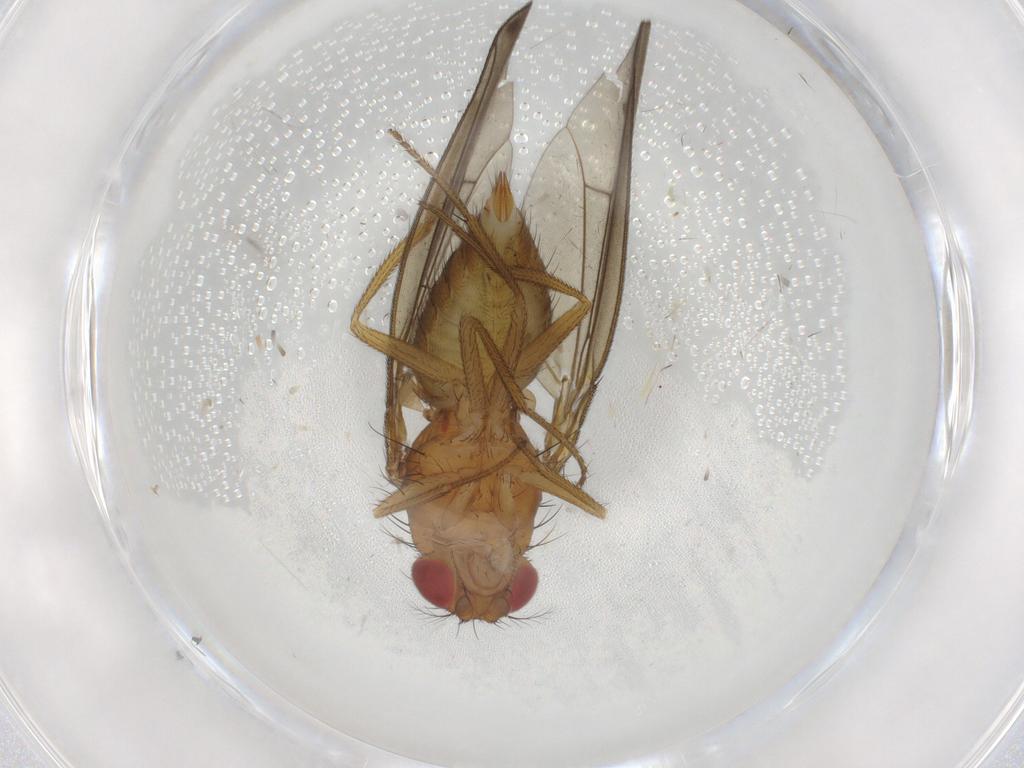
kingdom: Animalia
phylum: Arthropoda
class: Insecta
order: Diptera
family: Drosophilidae
